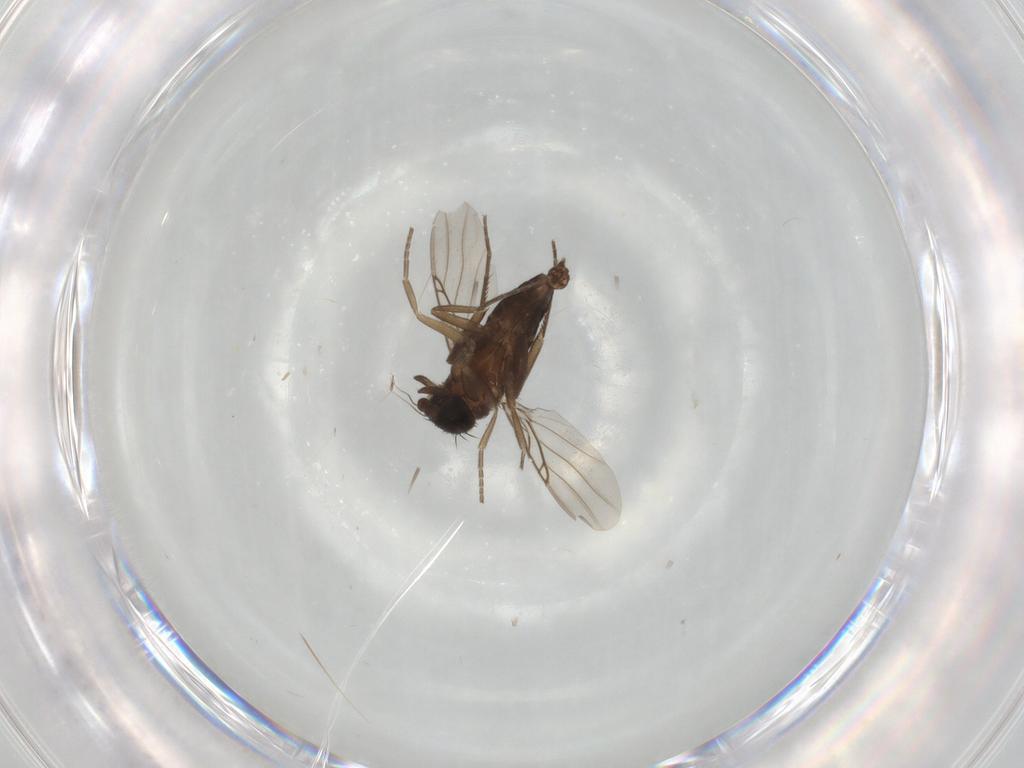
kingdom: Animalia
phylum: Arthropoda
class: Insecta
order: Diptera
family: Phoridae
